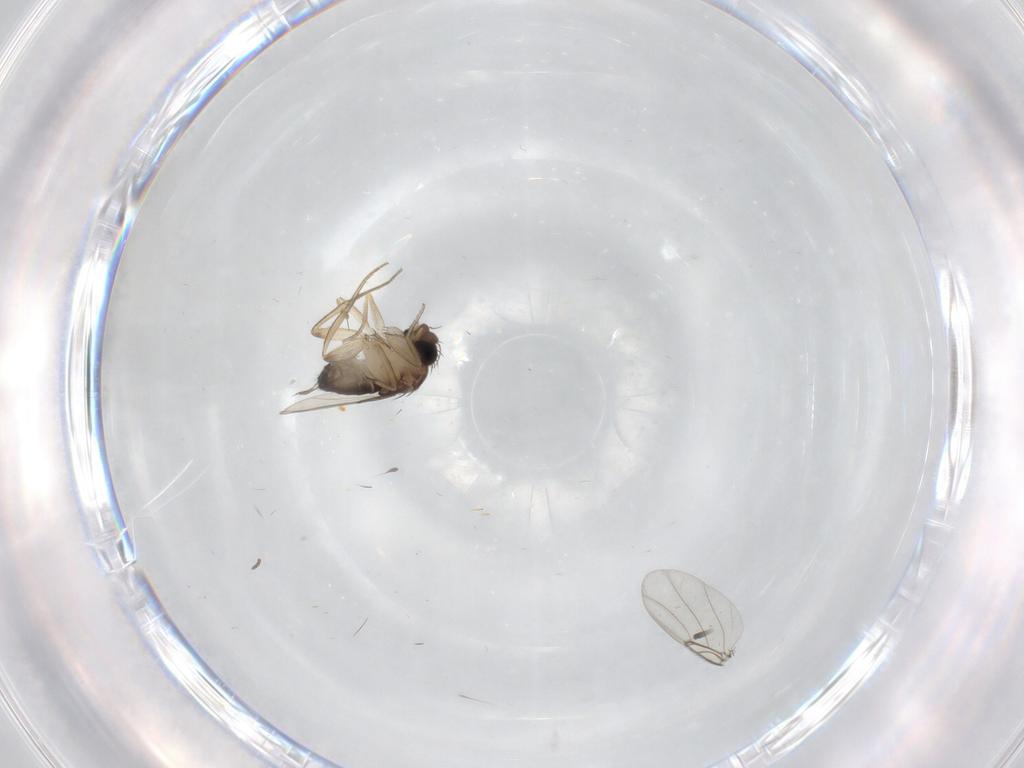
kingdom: Animalia
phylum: Arthropoda
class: Insecta
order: Diptera
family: Cecidomyiidae
